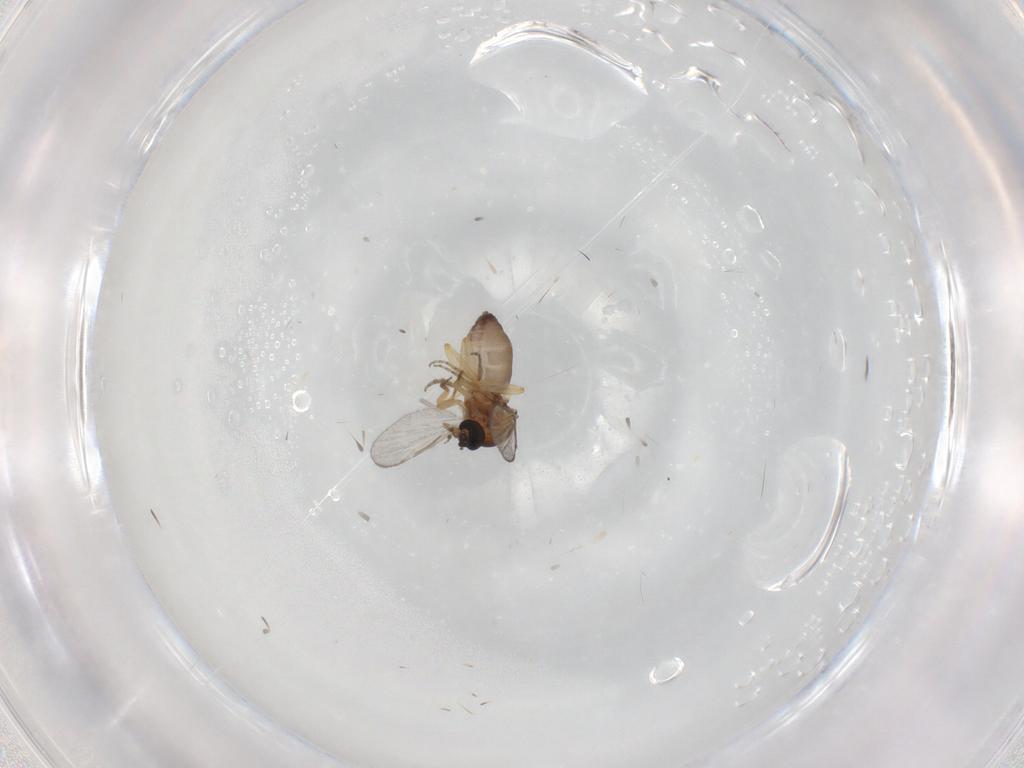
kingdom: Animalia
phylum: Arthropoda
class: Insecta
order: Diptera
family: Ceratopogonidae
